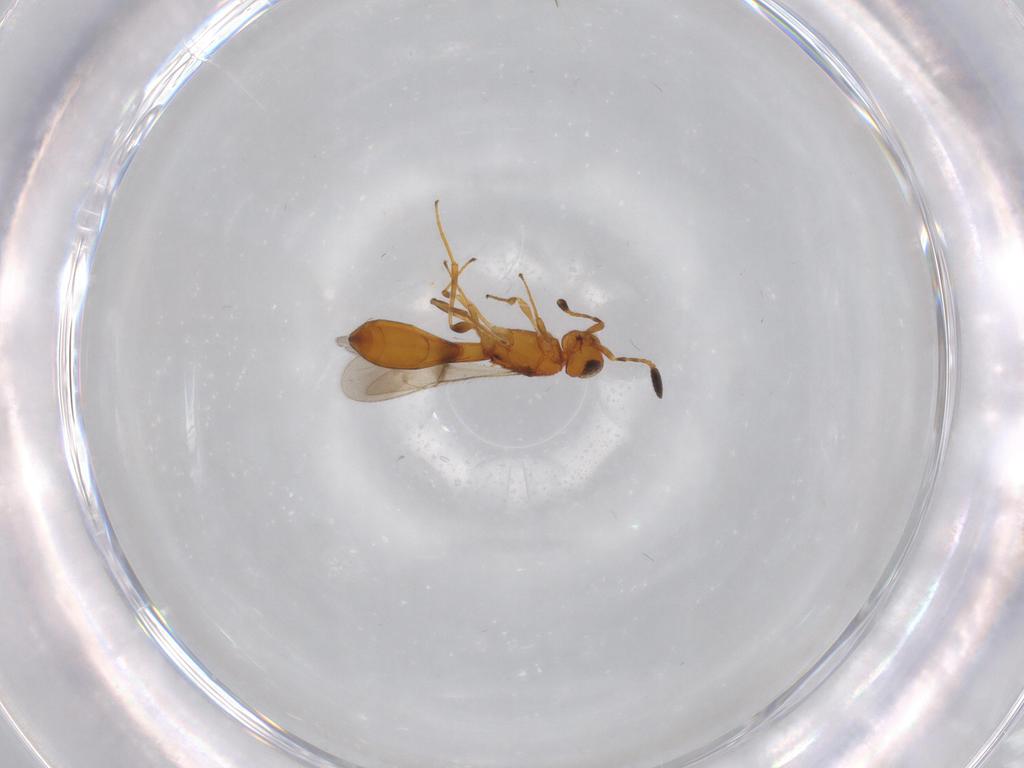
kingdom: Animalia
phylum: Arthropoda
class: Insecta
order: Hymenoptera
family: Scelionidae
